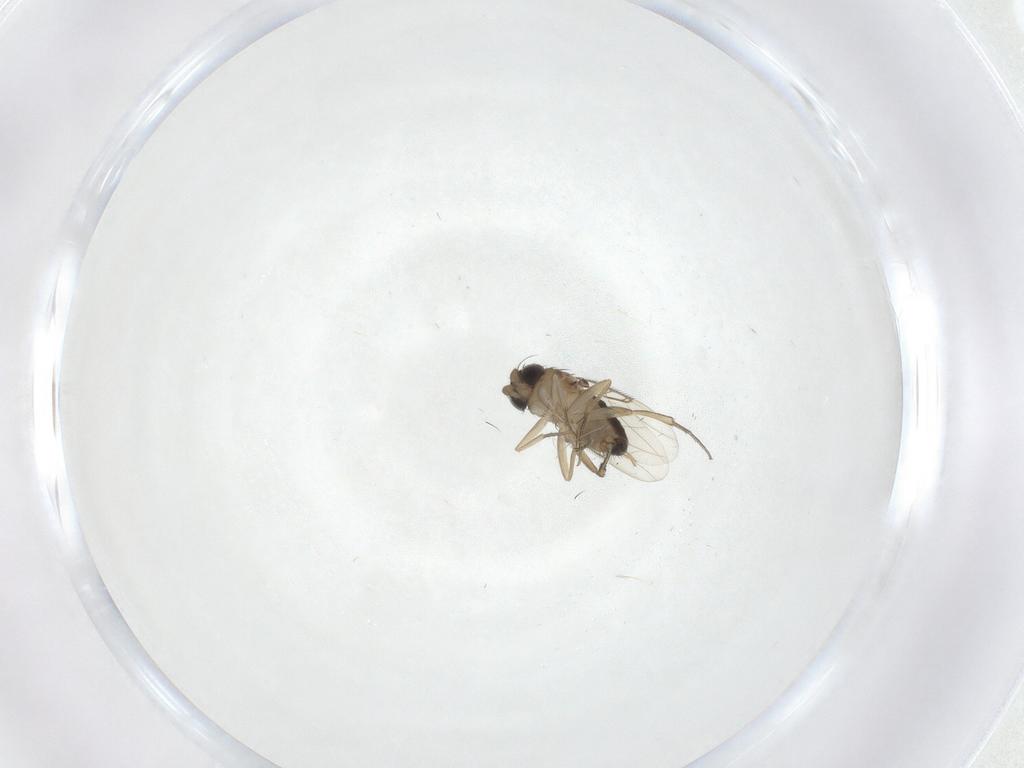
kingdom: Animalia
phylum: Arthropoda
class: Insecta
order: Diptera
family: Ceratopogonidae
